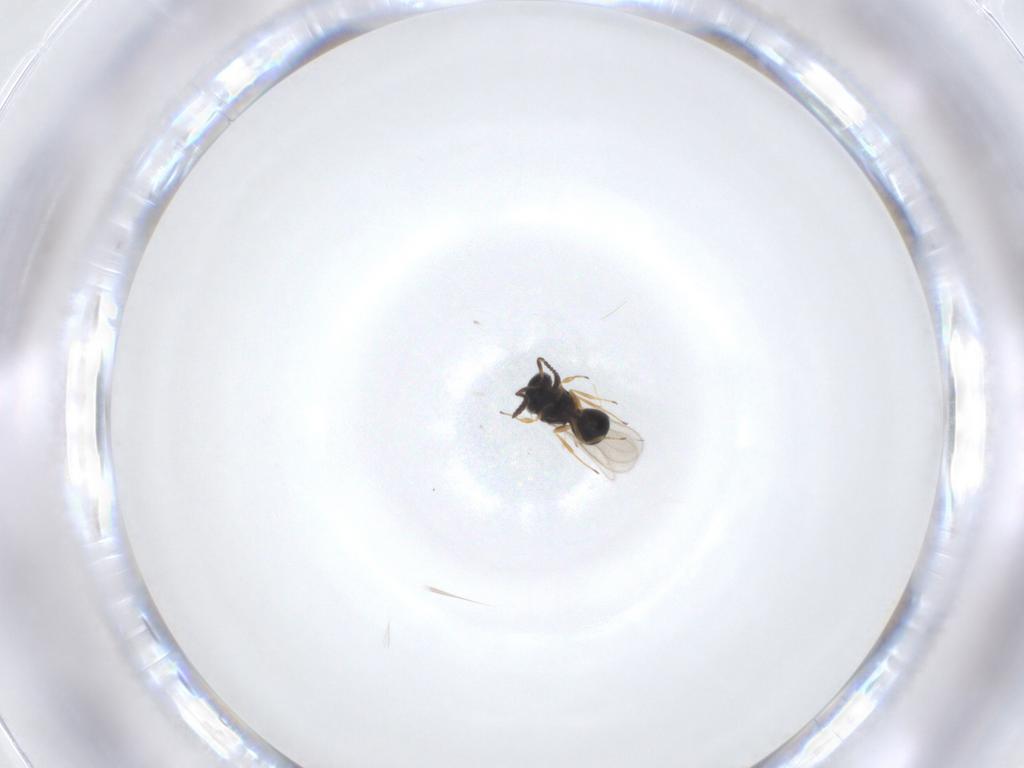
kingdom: Animalia
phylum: Arthropoda
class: Insecta
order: Hymenoptera
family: Scelionidae
